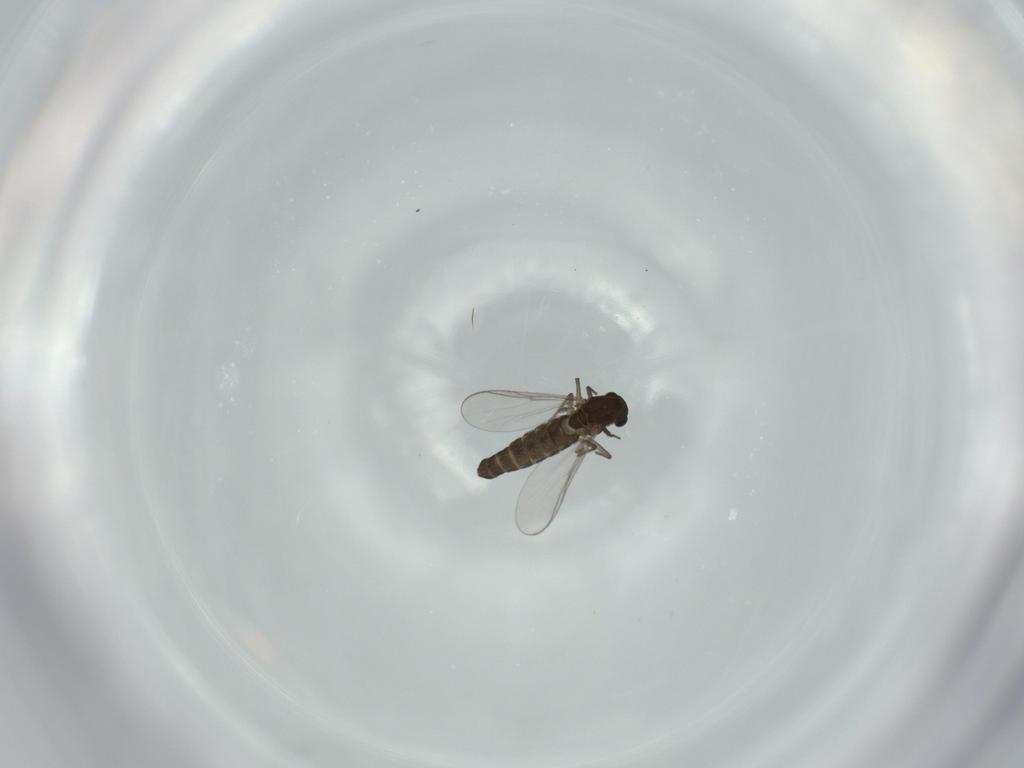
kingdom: Animalia
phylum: Arthropoda
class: Insecta
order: Diptera
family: Chironomidae
